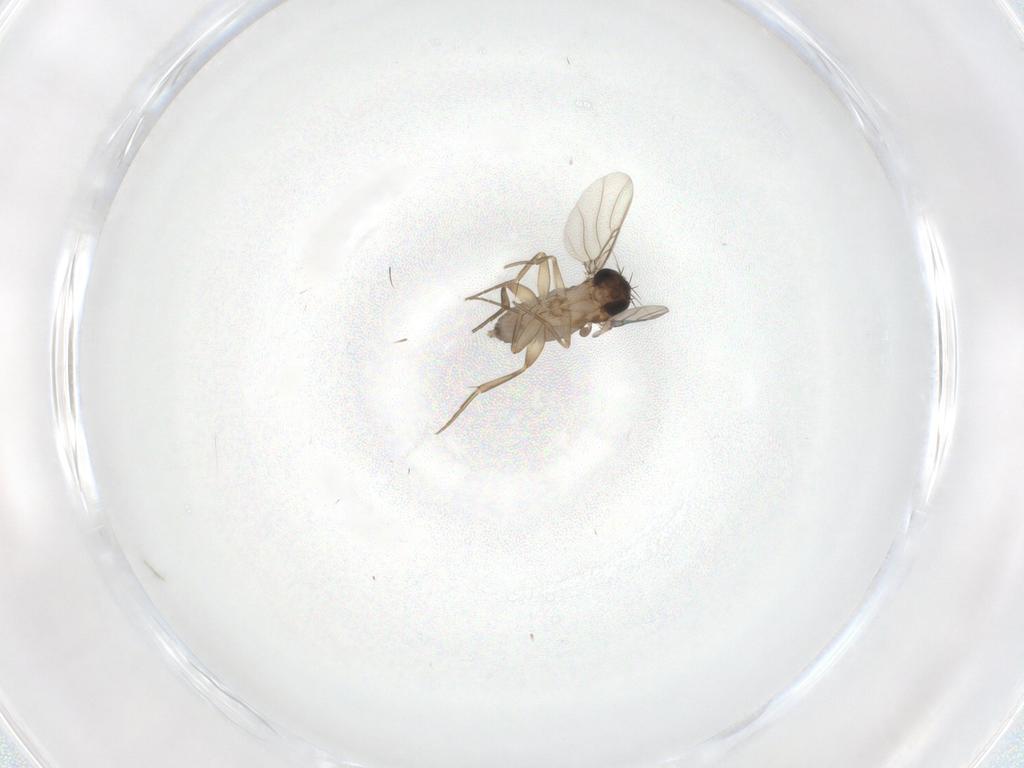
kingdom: Animalia
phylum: Arthropoda
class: Insecta
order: Diptera
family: Phoridae
